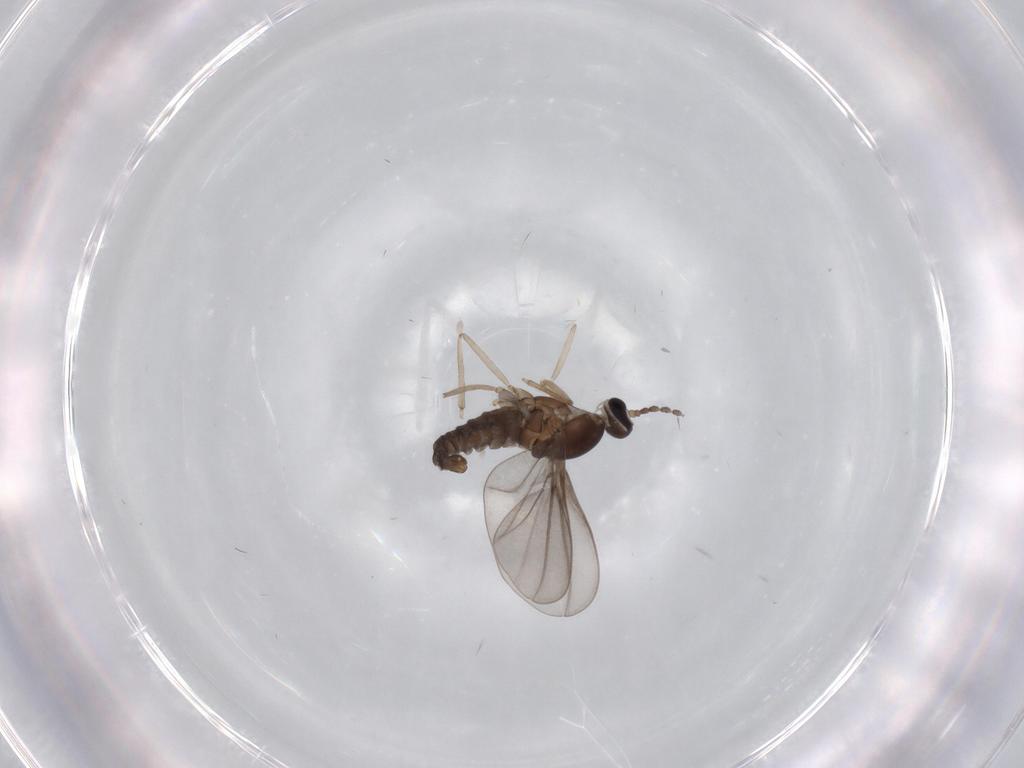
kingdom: Animalia
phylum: Arthropoda
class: Insecta
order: Diptera
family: Cecidomyiidae
